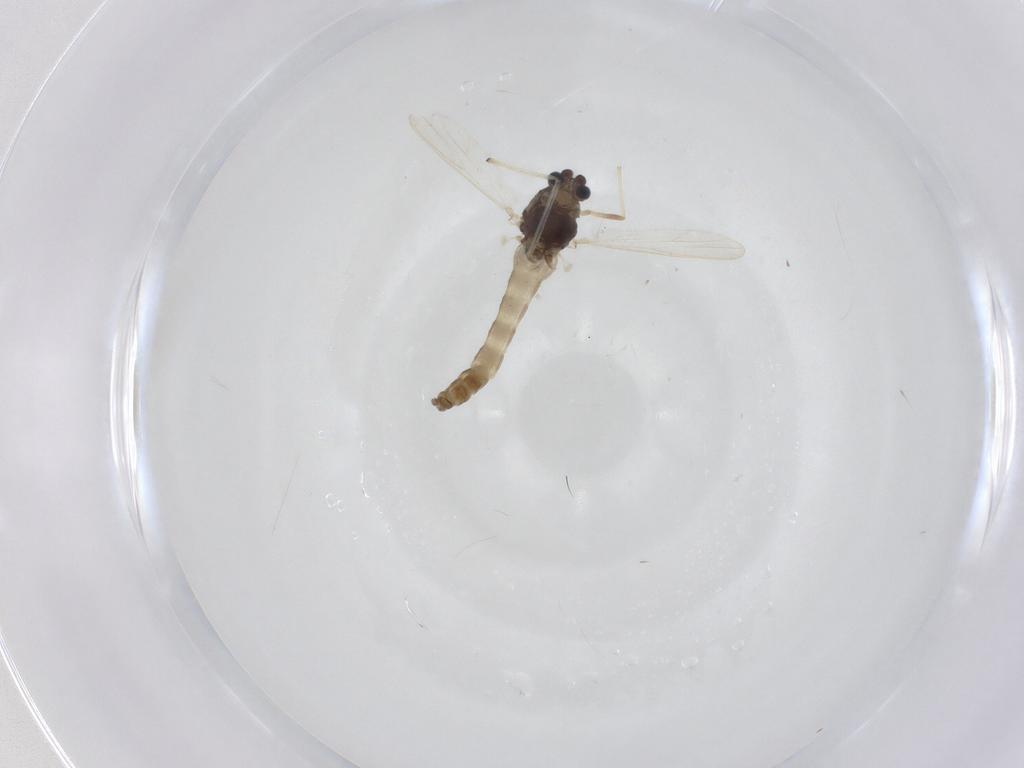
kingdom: Animalia
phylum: Arthropoda
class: Insecta
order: Diptera
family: Chironomidae
